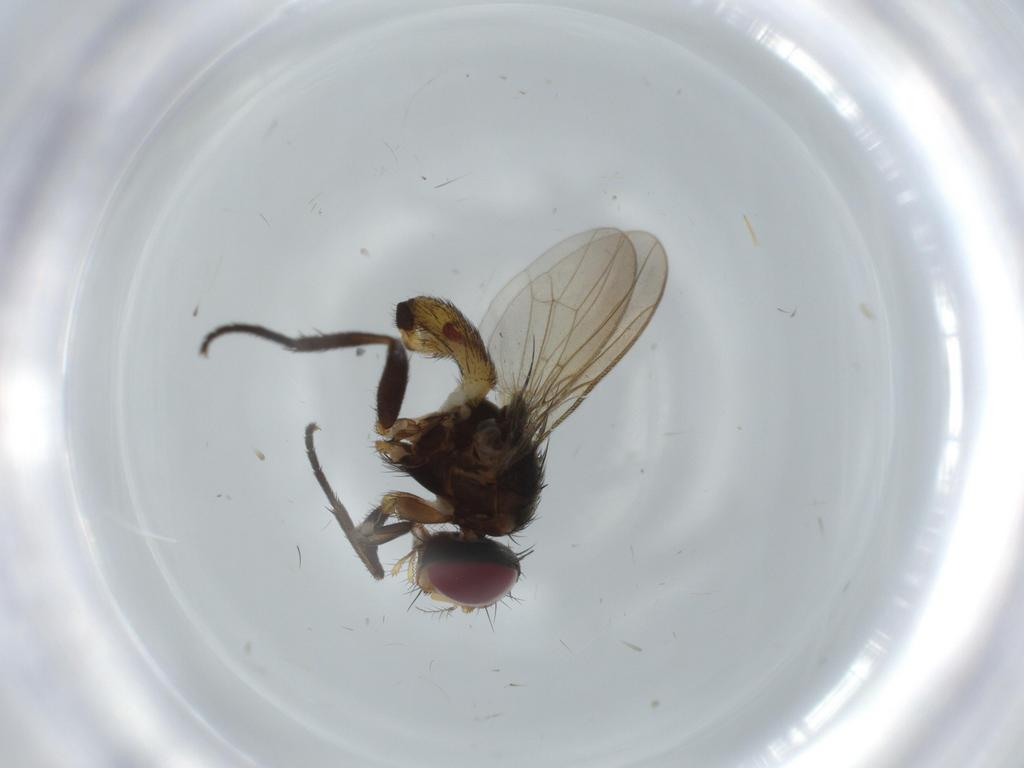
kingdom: Animalia
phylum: Arthropoda
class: Insecta
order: Diptera
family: Anthomyiidae
